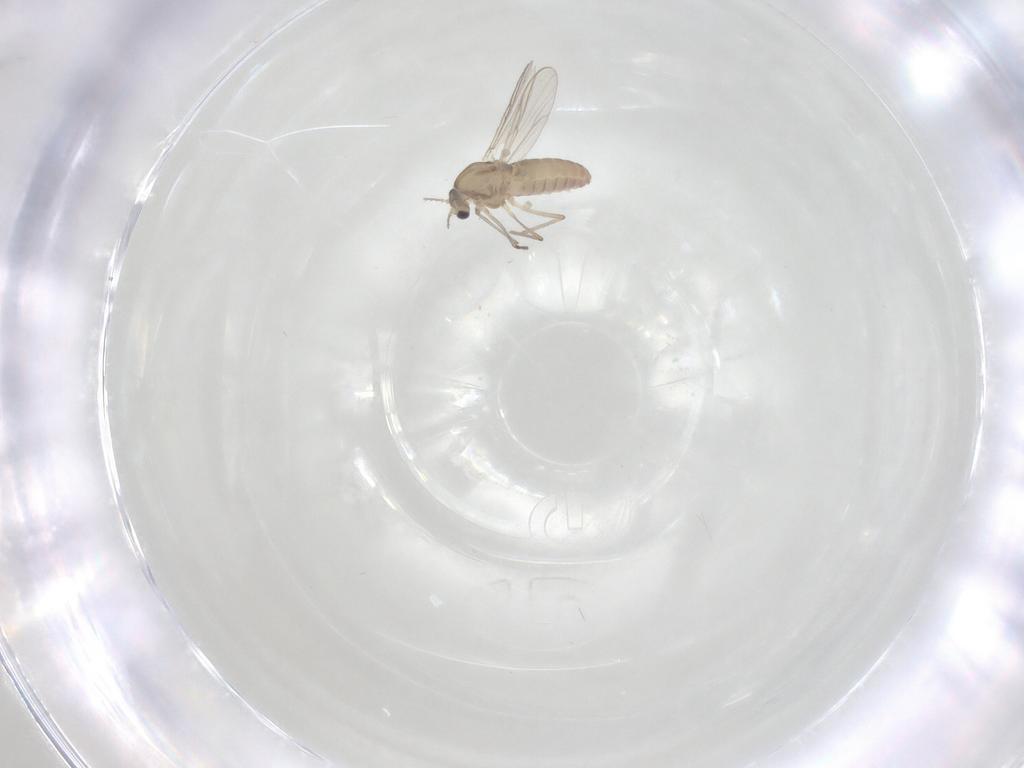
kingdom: Animalia
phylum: Arthropoda
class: Insecta
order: Diptera
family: Chironomidae
